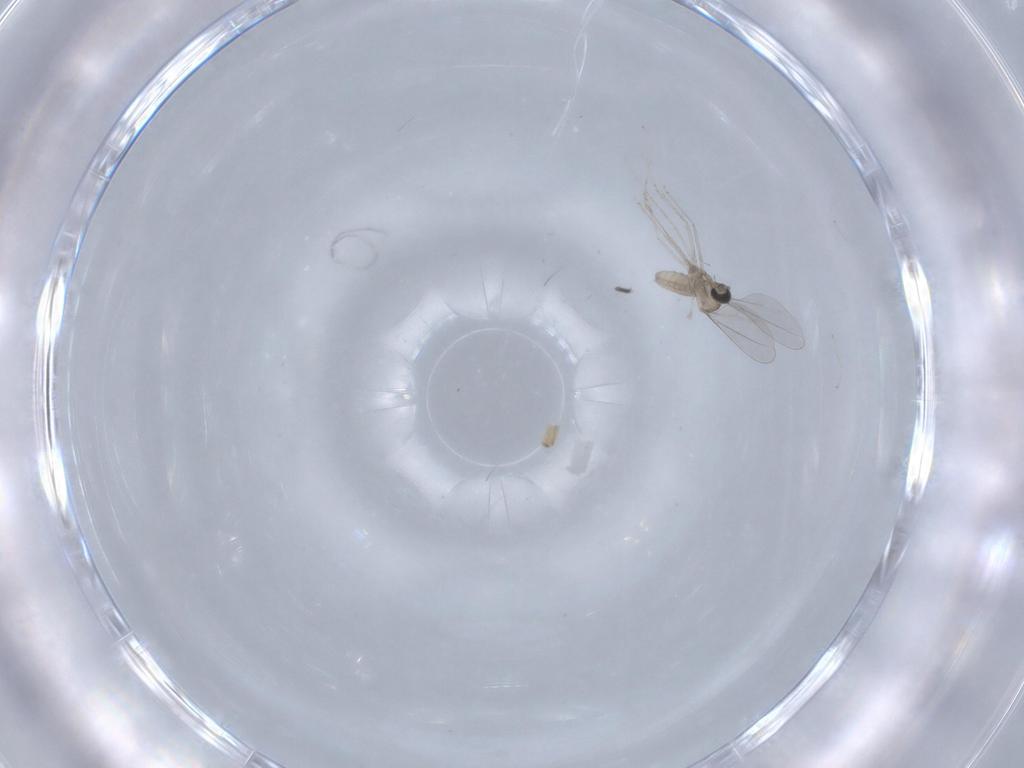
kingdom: Animalia
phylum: Arthropoda
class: Insecta
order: Diptera
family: Cecidomyiidae
